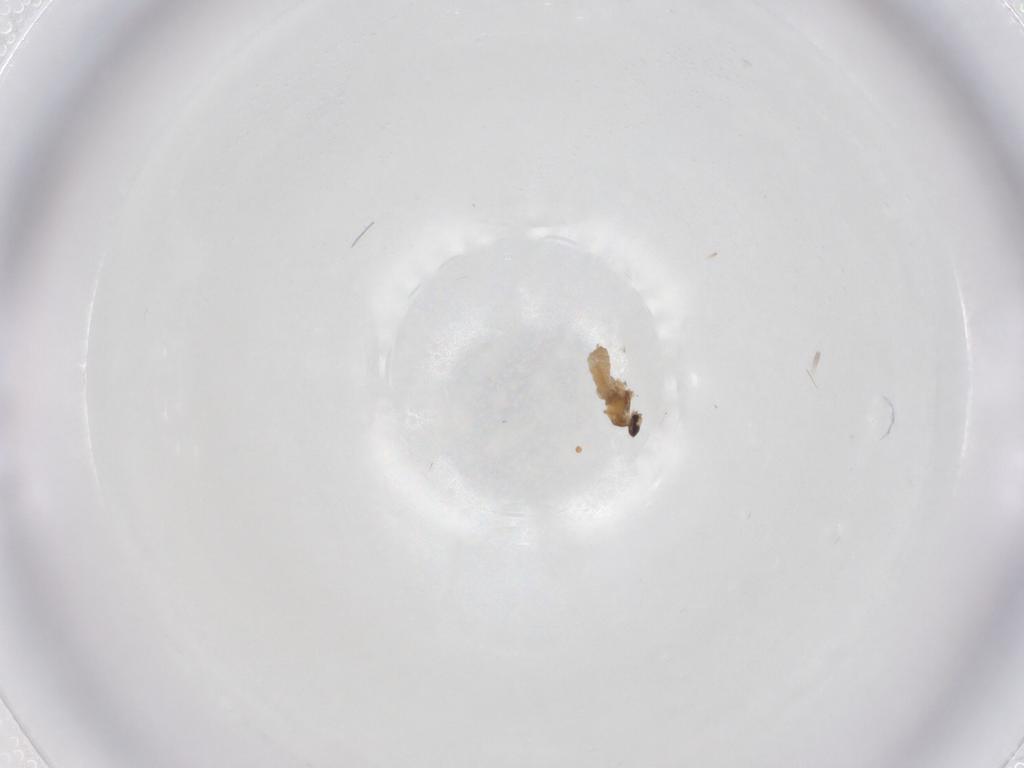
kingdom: Animalia
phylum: Arthropoda
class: Insecta
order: Diptera
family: Cecidomyiidae
